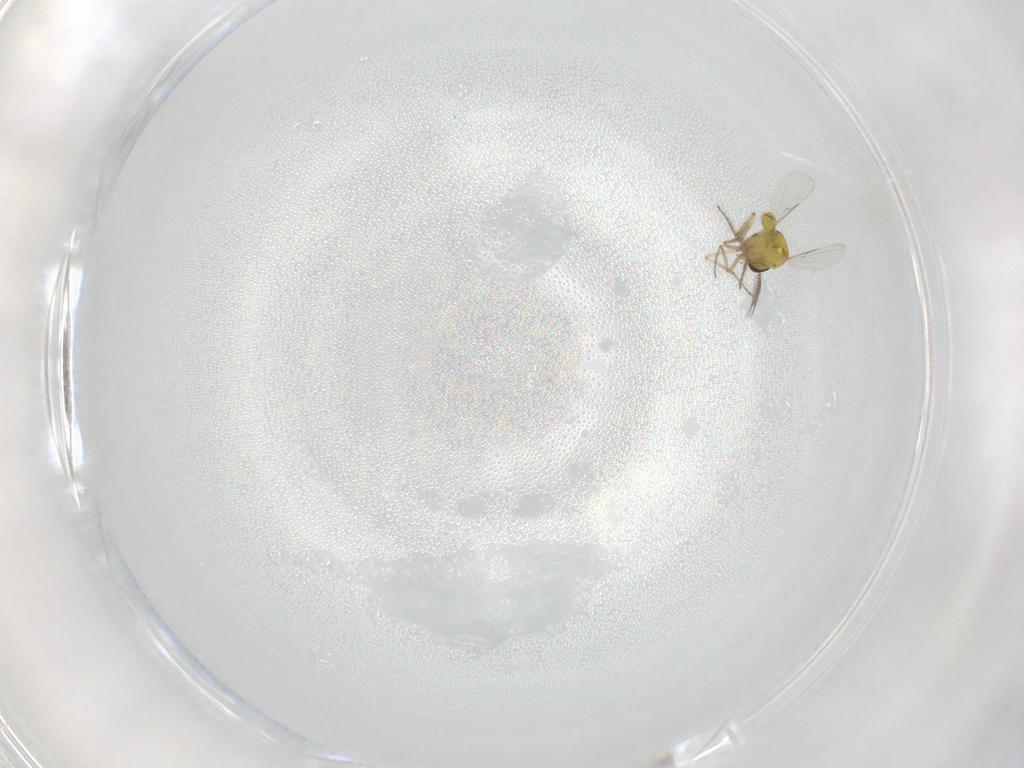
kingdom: Animalia
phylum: Arthropoda
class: Insecta
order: Diptera
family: Ceratopogonidae
